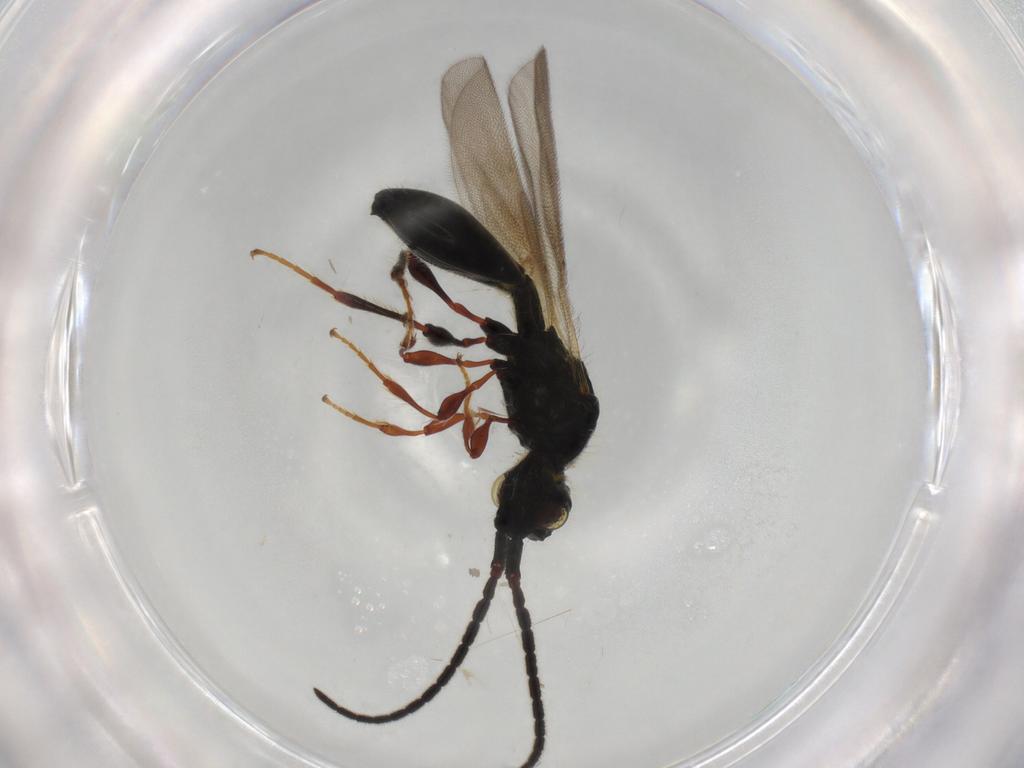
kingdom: Animalia
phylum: Arthropoda
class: Insecta
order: Hymenoptera
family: Diapriidae
